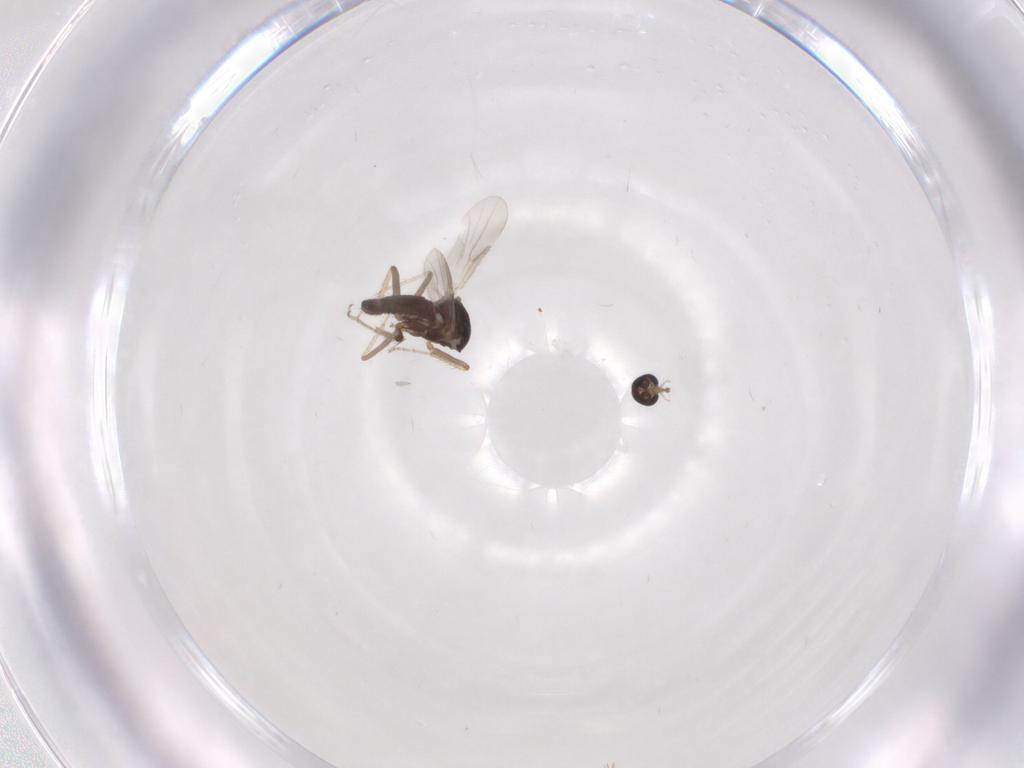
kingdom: Animalia
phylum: Arthropoda
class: Insecta
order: Diptera
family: Ceratopogonidae
